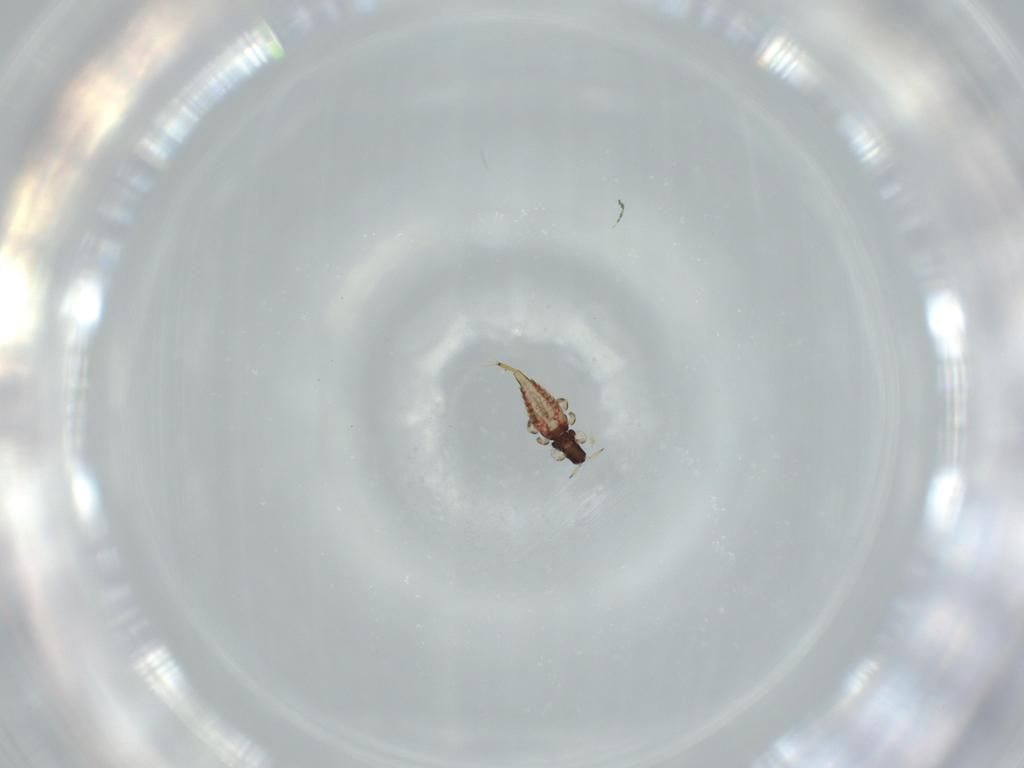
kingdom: Animalia
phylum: Arthropoda
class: Insecta
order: Thysanoptera
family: Phlaeothripidae
